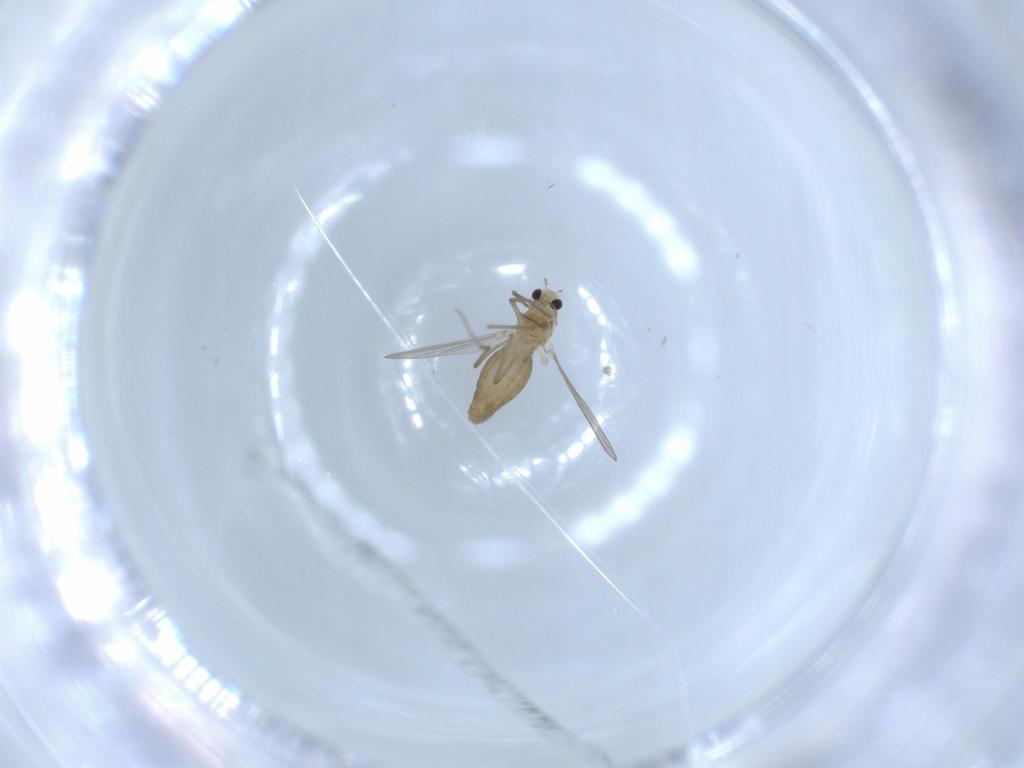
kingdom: Animalia
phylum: Arthropoda
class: Insecta
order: Diptera
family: Chironomidae
